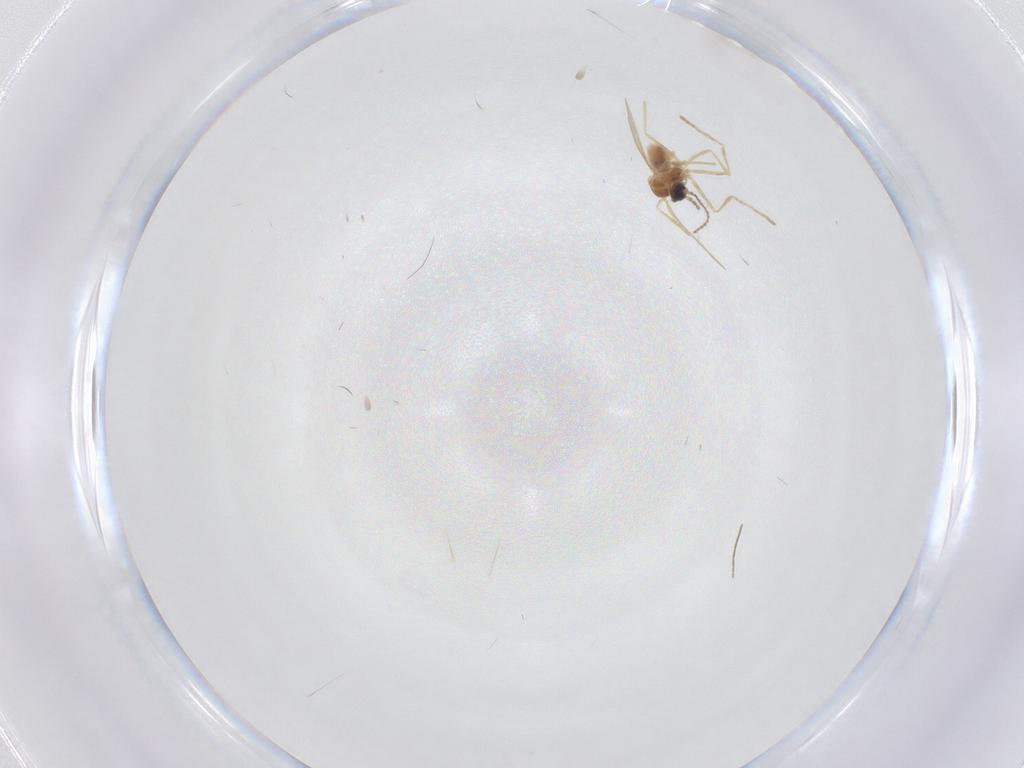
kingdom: Animalia
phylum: Arthropoda
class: Insecta
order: Diptera
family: Cecidomyiidae
